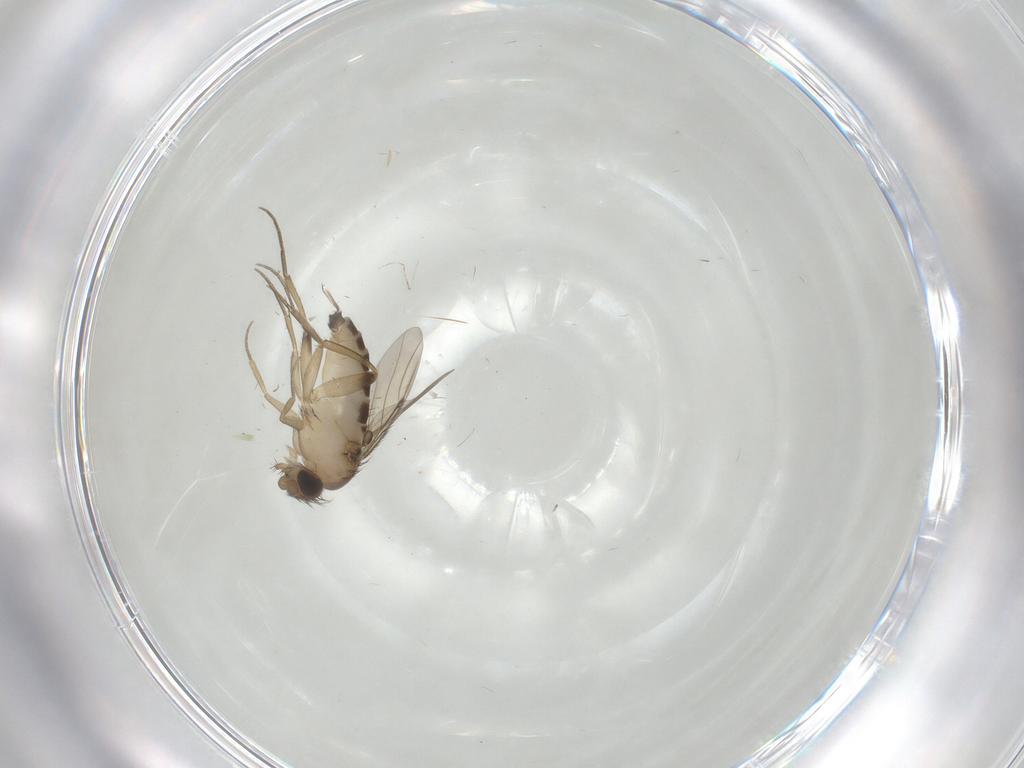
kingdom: Animalia
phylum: Arthropoda
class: Insecta
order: Diptera
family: Phoridae
